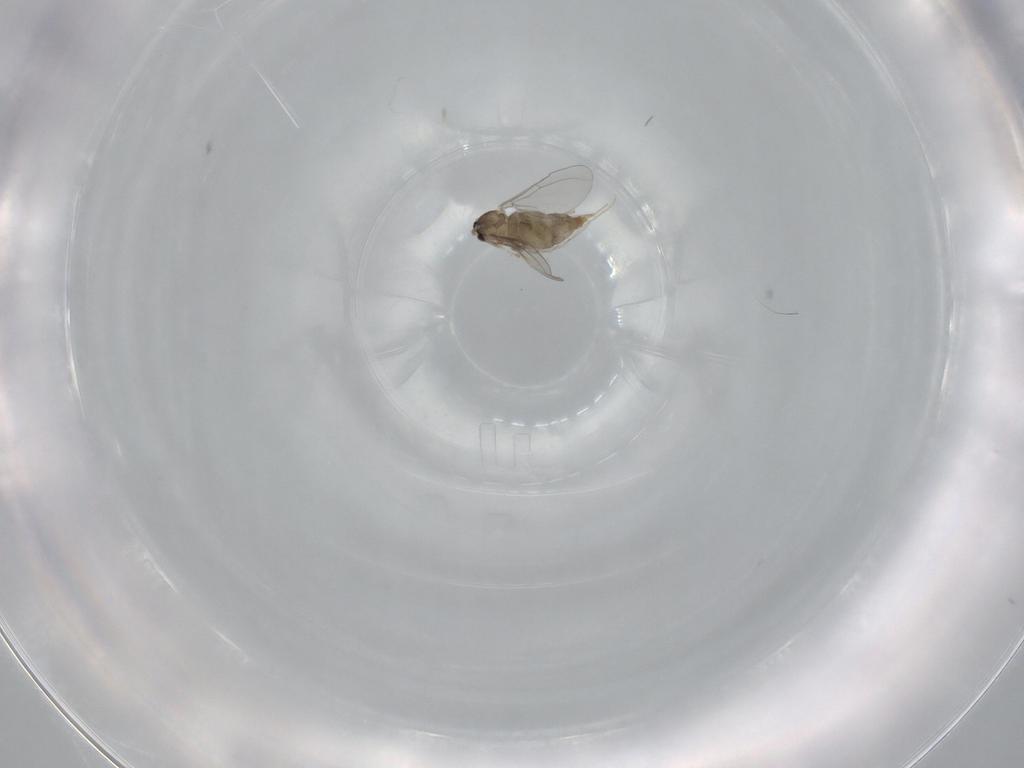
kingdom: Animalia
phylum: Arthropoda
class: Insecta
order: Diptera
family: Cecidomyiidae
